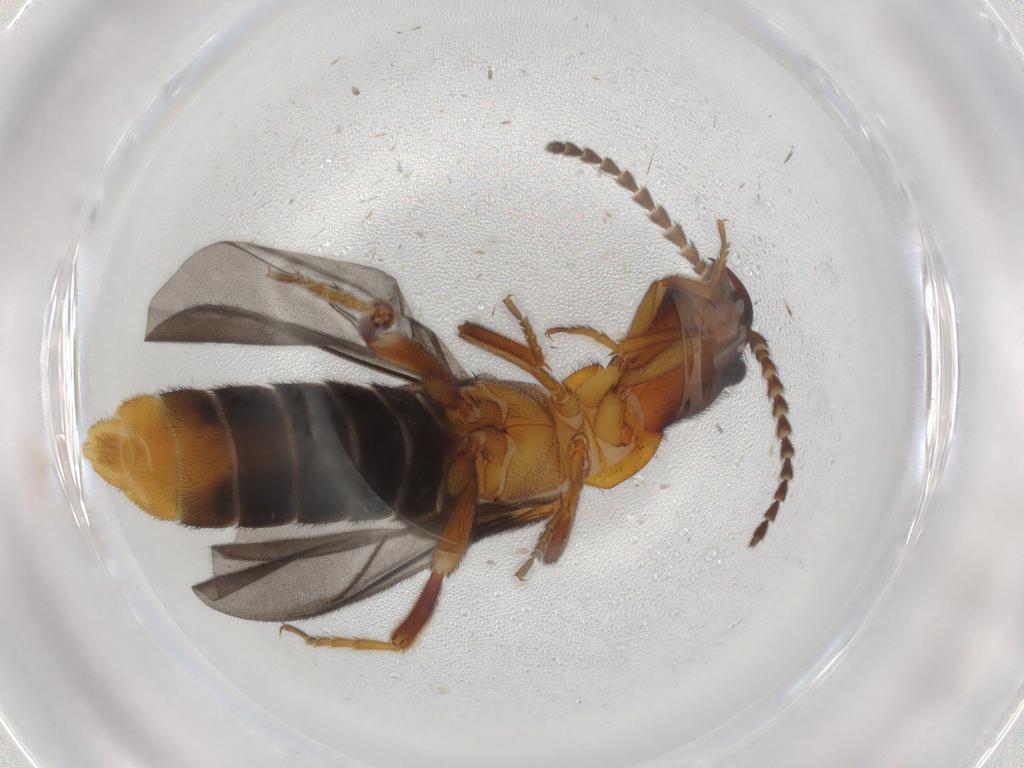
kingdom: Animalia
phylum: Arthropoda
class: Insecta
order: Coleoptera
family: Omethidae
